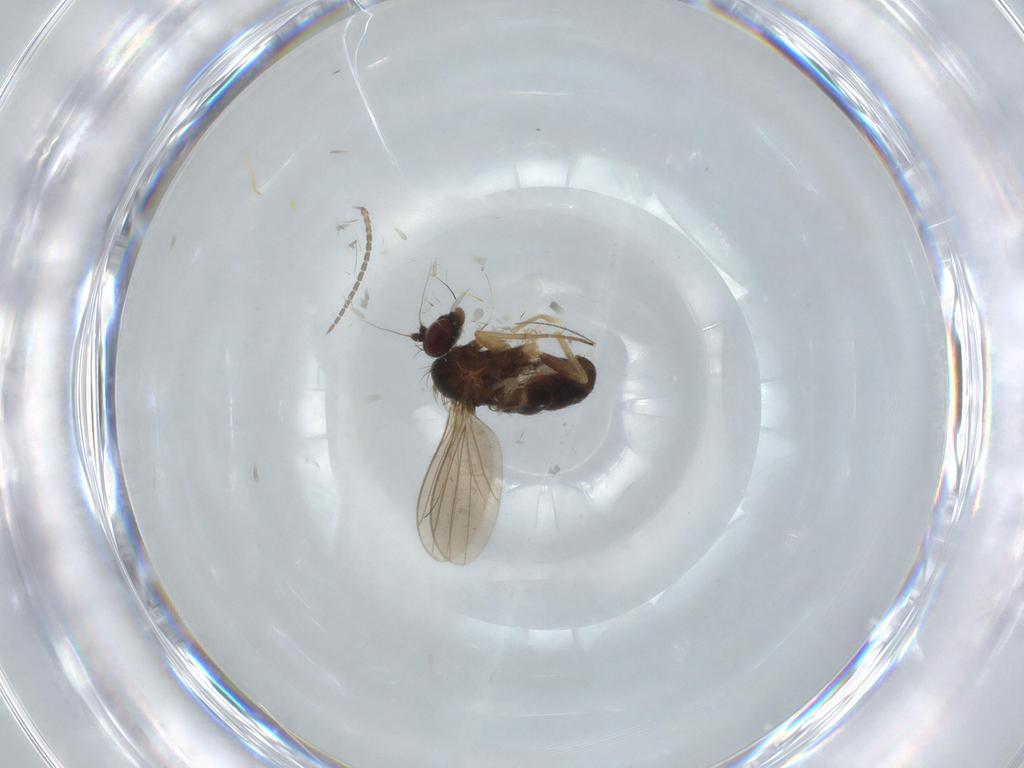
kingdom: Animalia
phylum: Arthropoda
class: Insecta
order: Diptera
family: Dolichopodidae
